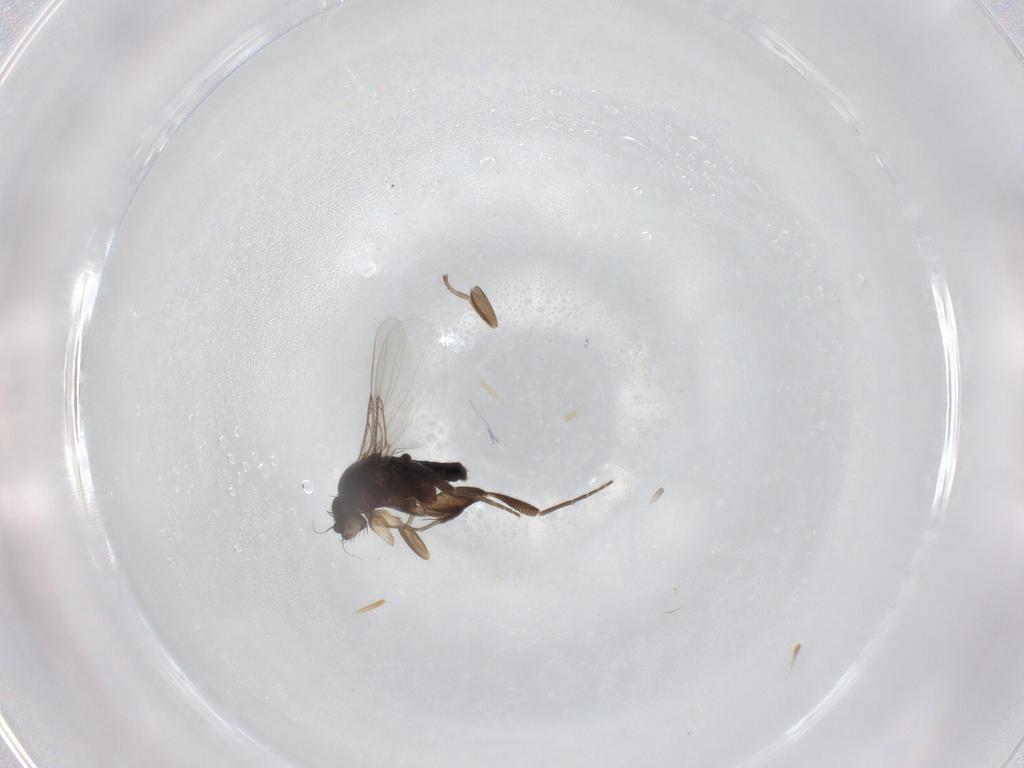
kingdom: Animalia
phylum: Arthropoda
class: Insecta
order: Diptera
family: Phoridae
